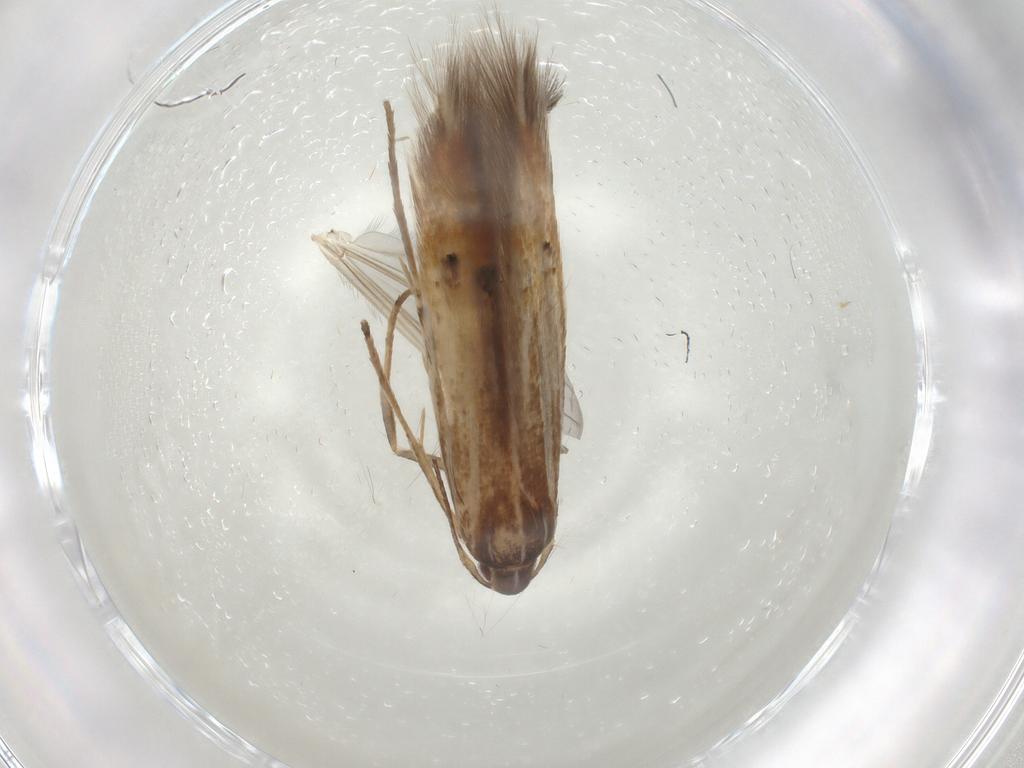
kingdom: Animalia
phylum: Arthropoda
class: Insecta
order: Lepidoptera
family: Cosmopterigidae
